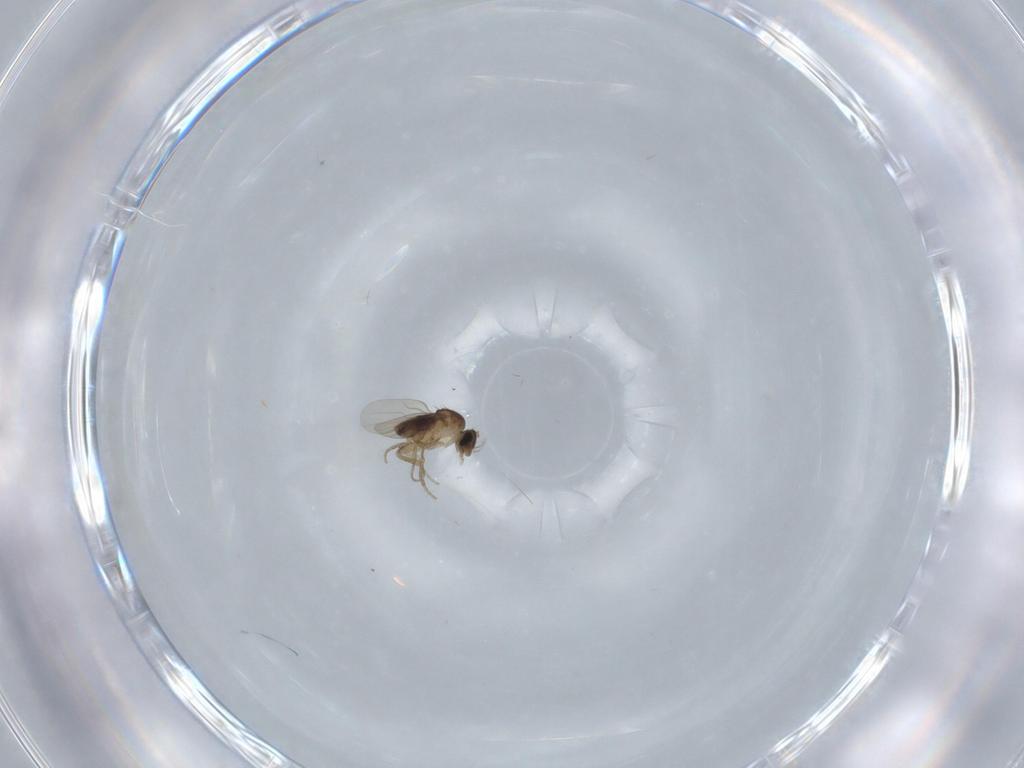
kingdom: Animalia
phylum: Arthropoda
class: Insecta
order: Diptera
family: Phoridae
